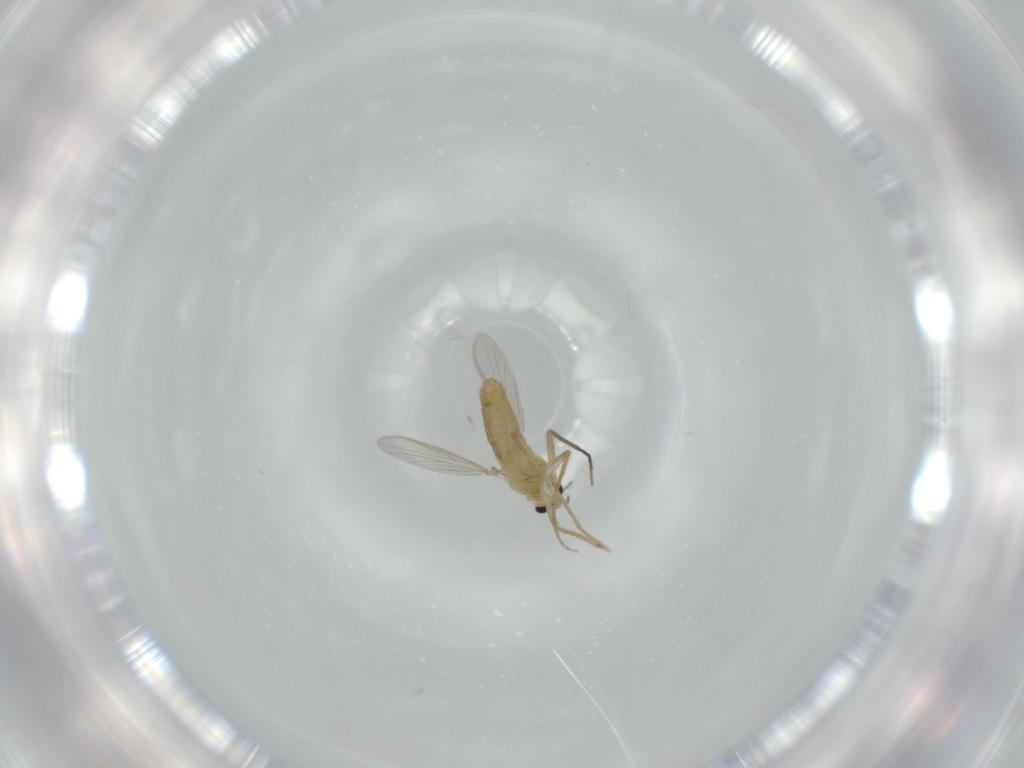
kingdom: Animalia
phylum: Arthropoda
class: Insecta
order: Diptera
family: Chironomidae
